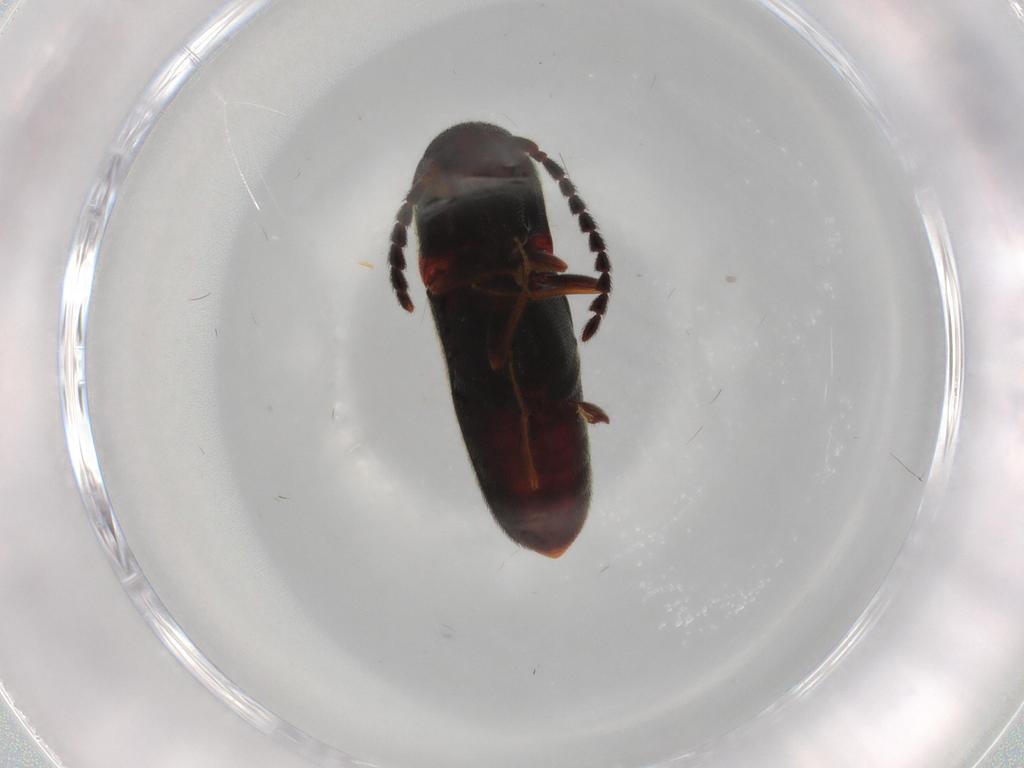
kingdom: Animalia
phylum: Arthropoda
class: Insecta
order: Coleoptera
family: Eucnemidae
